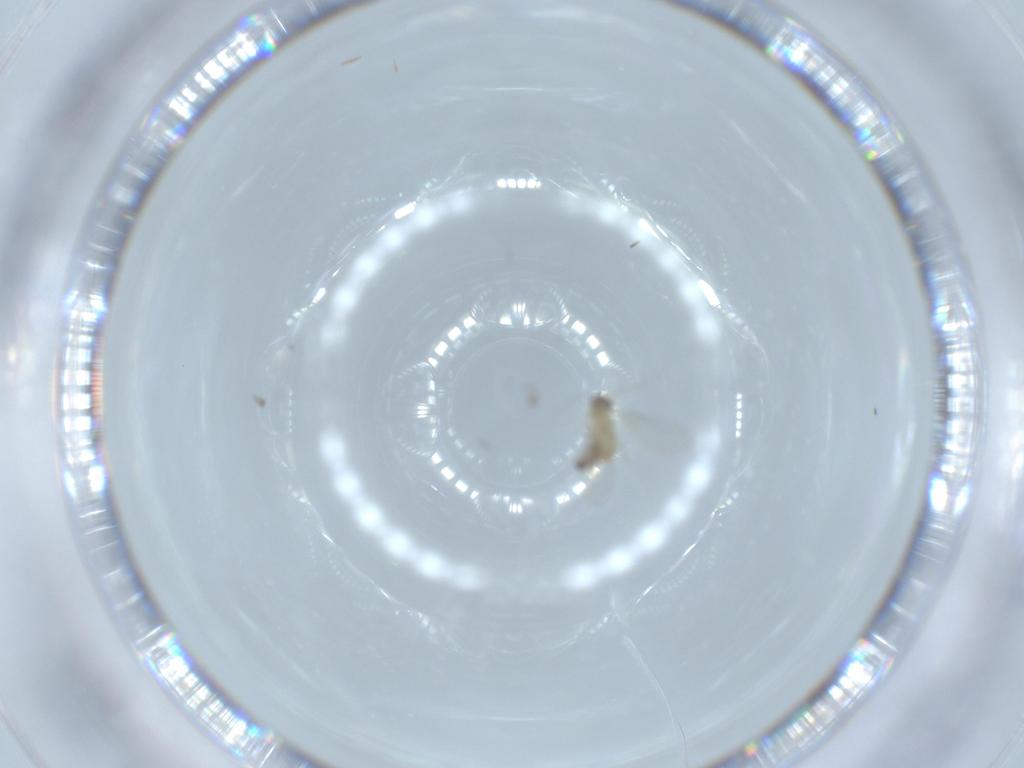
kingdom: Animalia
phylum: Arthropoda
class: Insecta
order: Diptera
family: Cecidomyiidae
